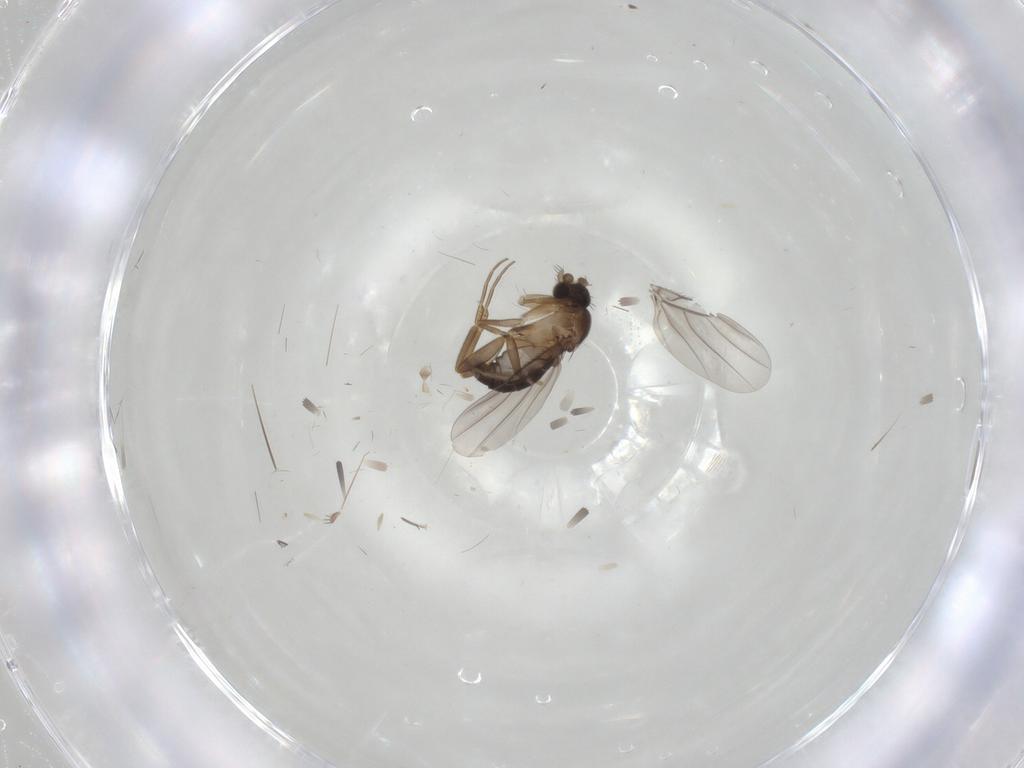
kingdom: Animalia
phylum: Arthropoda
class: Insecta
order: Diptera
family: Ceratopogonidae
